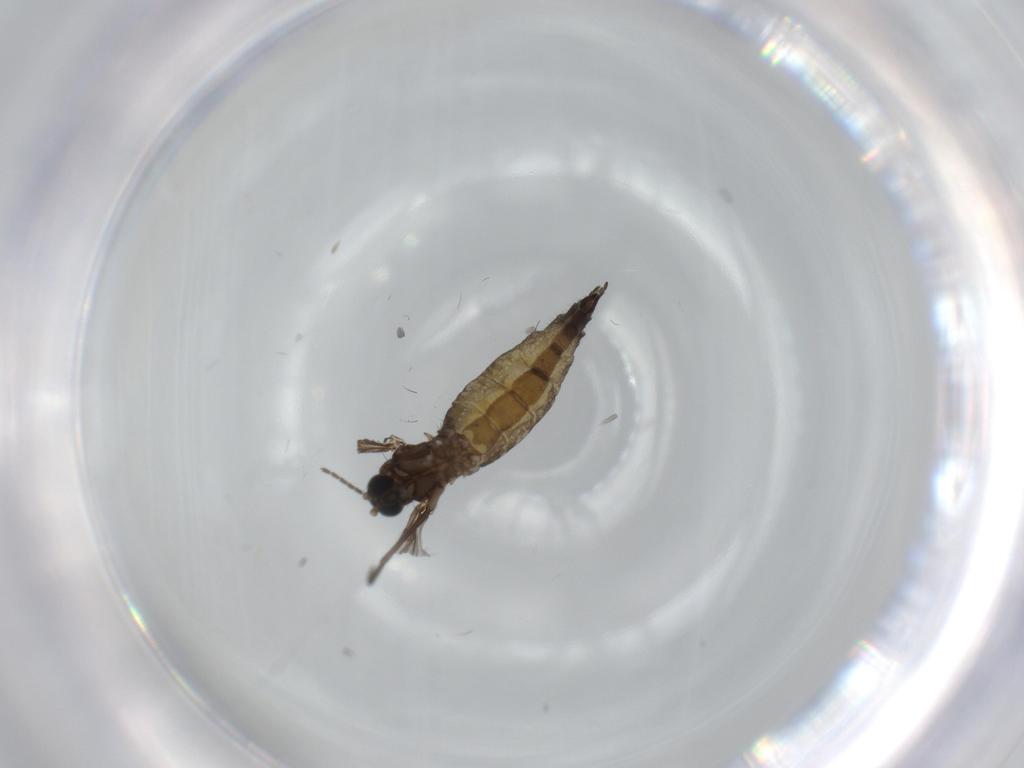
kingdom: Animalia
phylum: Arthropoda
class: Insecta
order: Diptera
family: Sciaridae
